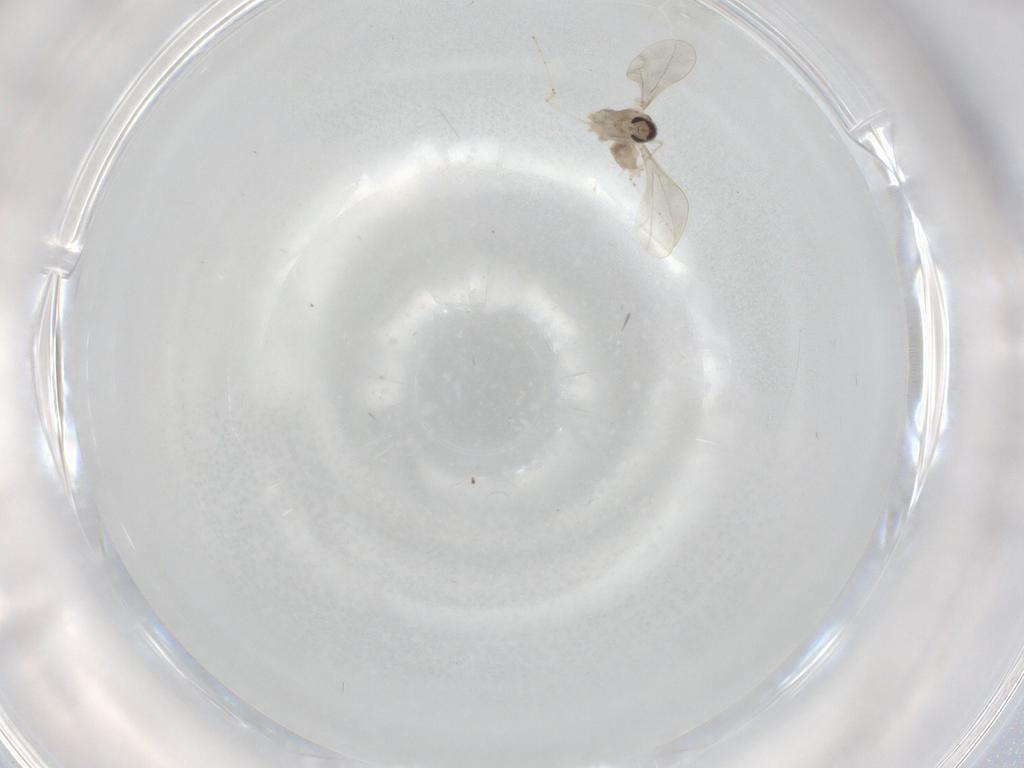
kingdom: Animalia
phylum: Arthropoda
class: Insecta
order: Diptera
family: Cecidomyiidae
